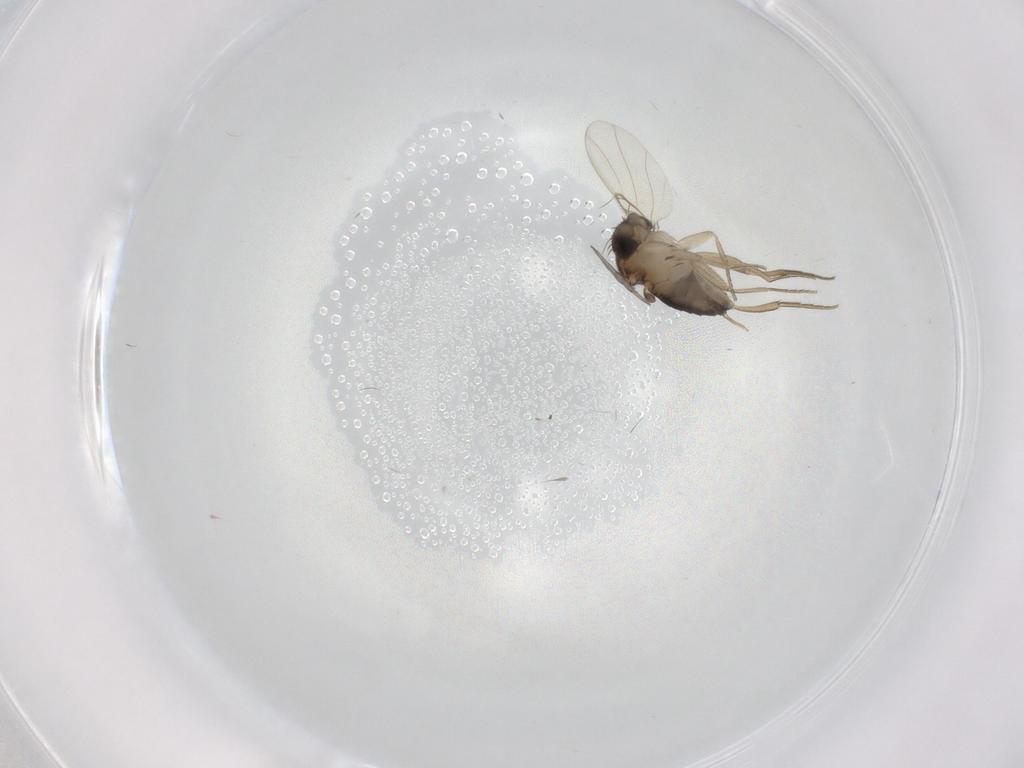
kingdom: Animalia
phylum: Arthropoda
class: Insecta
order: Diptera
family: Phoridae
